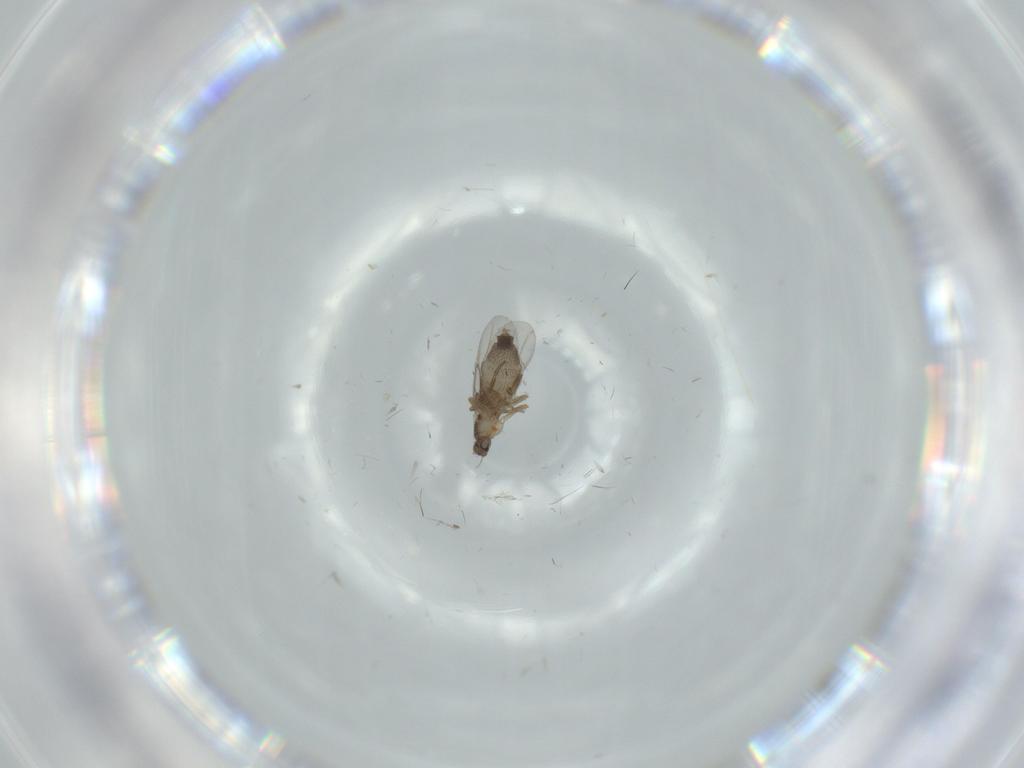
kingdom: Animalia
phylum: Arthropoda
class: Insecta
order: Diptera
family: Phoridae
